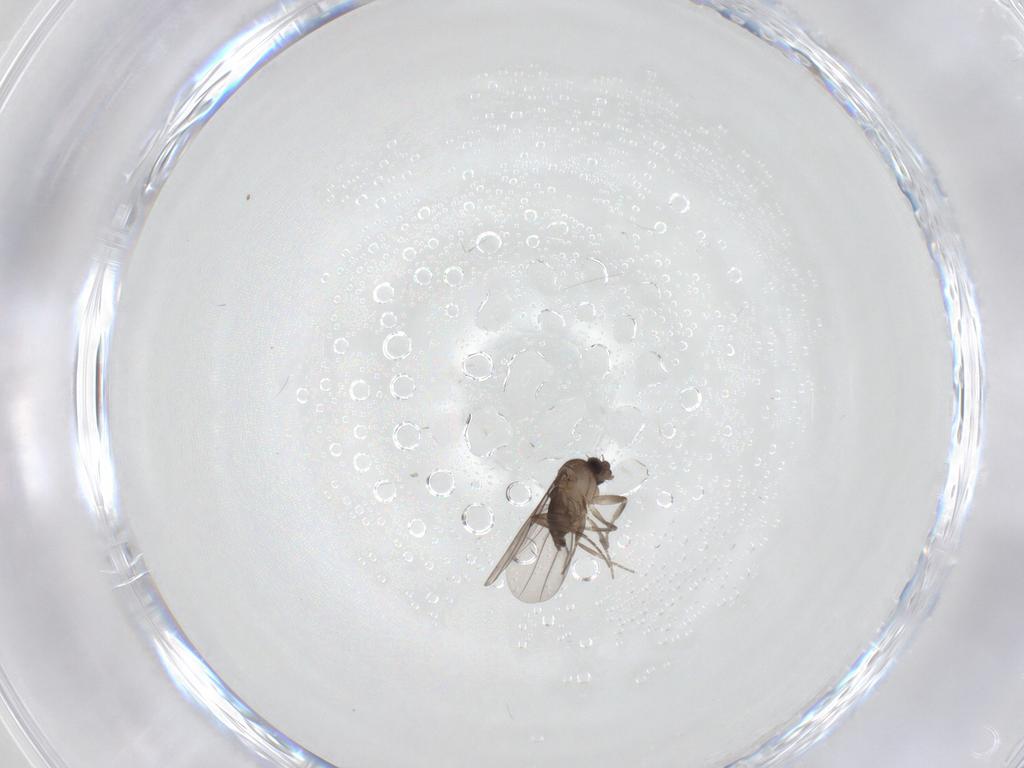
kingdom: Animalia
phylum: Arthropoda
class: Insecta
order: Diptera
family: Phoridae
